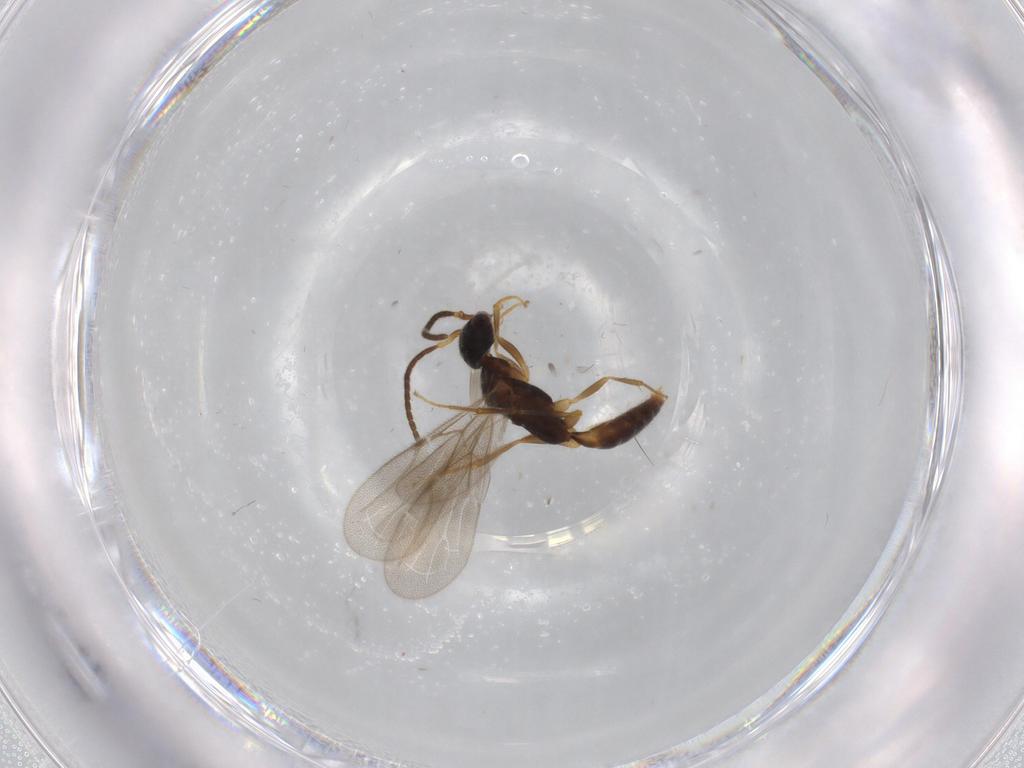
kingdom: Animalia
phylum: Arthropoda
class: Insecta
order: Hymenoptera
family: Bethylidae
